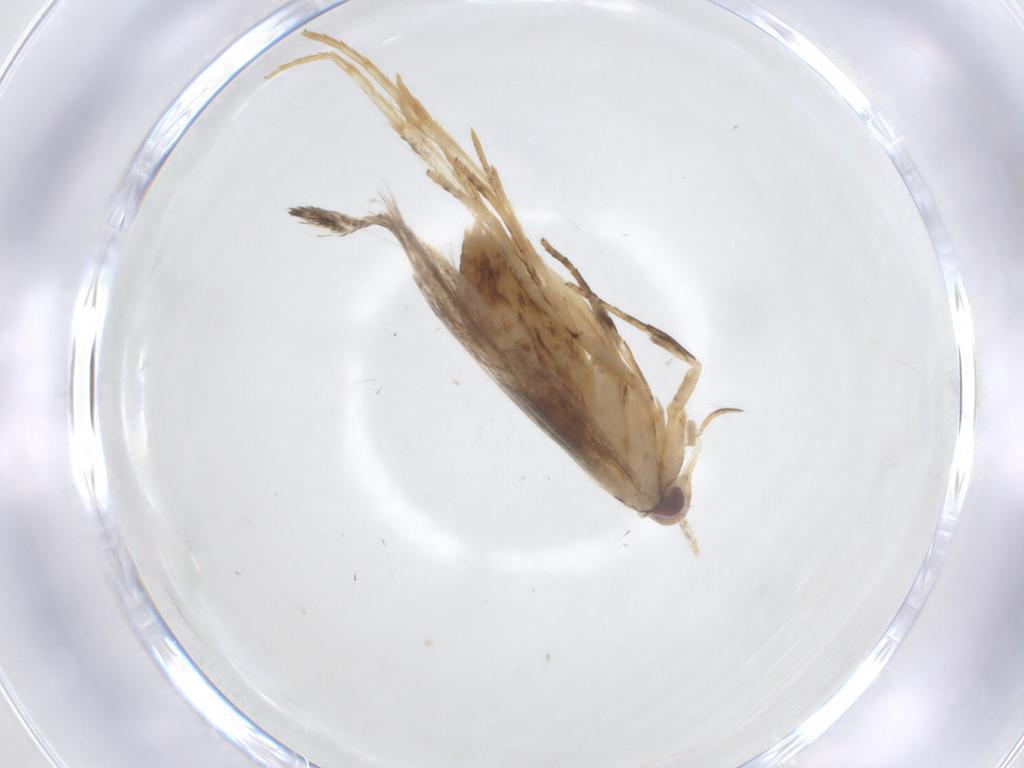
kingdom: Animalia
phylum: Arthropoda
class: Insecta
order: Lepidoptera
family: Cosmopterigidae
